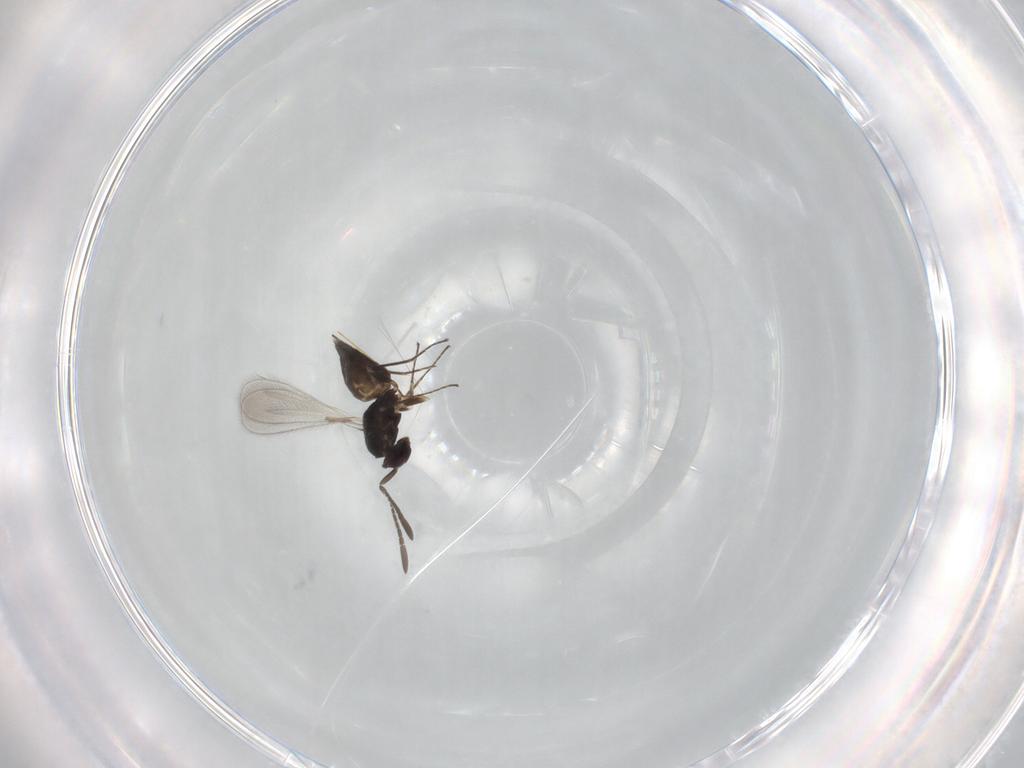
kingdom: Animalia
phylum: Arthropoda
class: Insecta
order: Hymenoptera
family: Mymaridae
